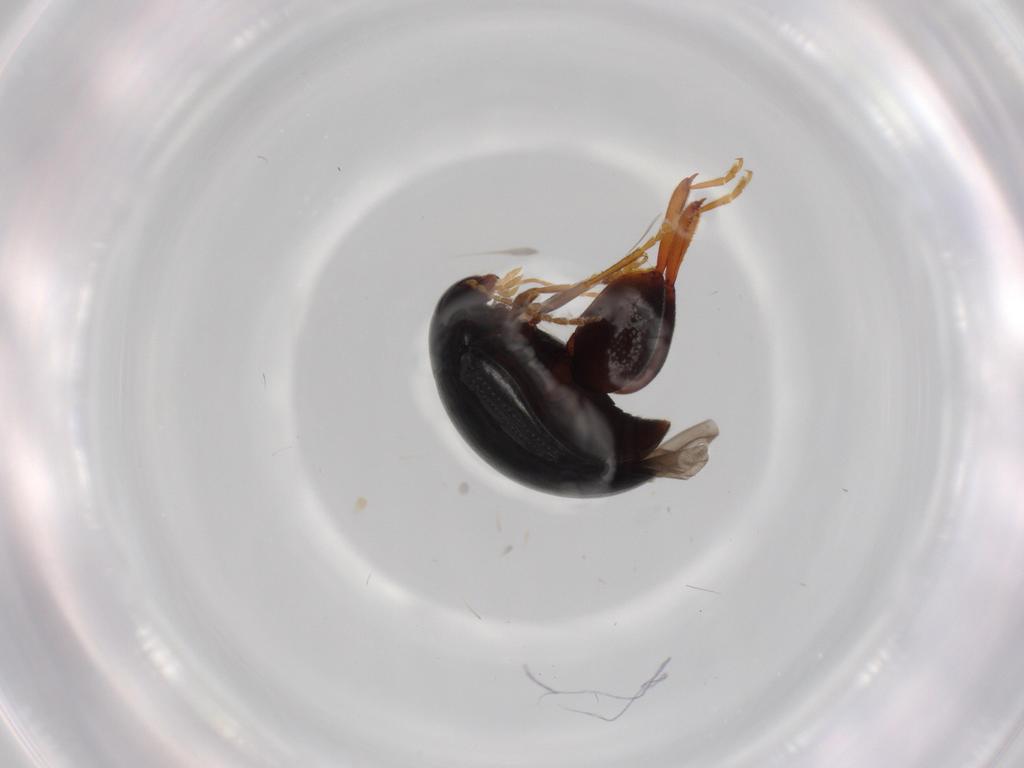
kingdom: Animalia
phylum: Arthropoda
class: Insecta
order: Coleoptera
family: Chrysomelidae
